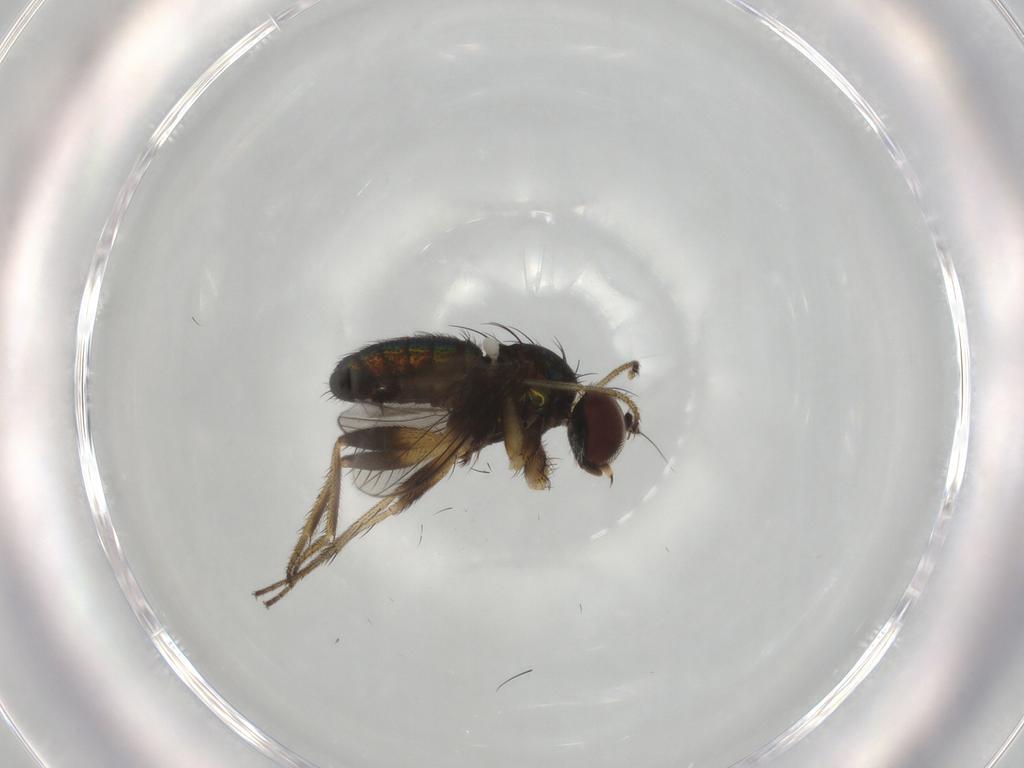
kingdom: Animalia
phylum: Arthropoda
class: Insecta
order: Diptera
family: Dolichopodidae
